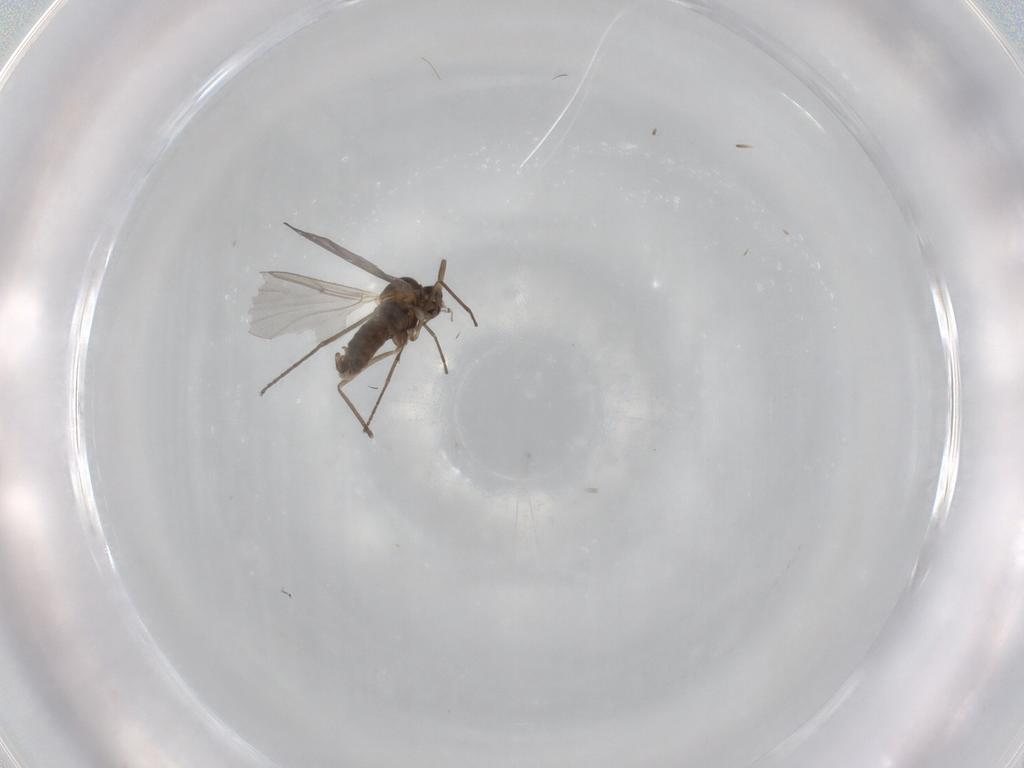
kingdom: Animalia
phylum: Arthropoda
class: Insecta
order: Diptera
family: Cecidomyiidae
